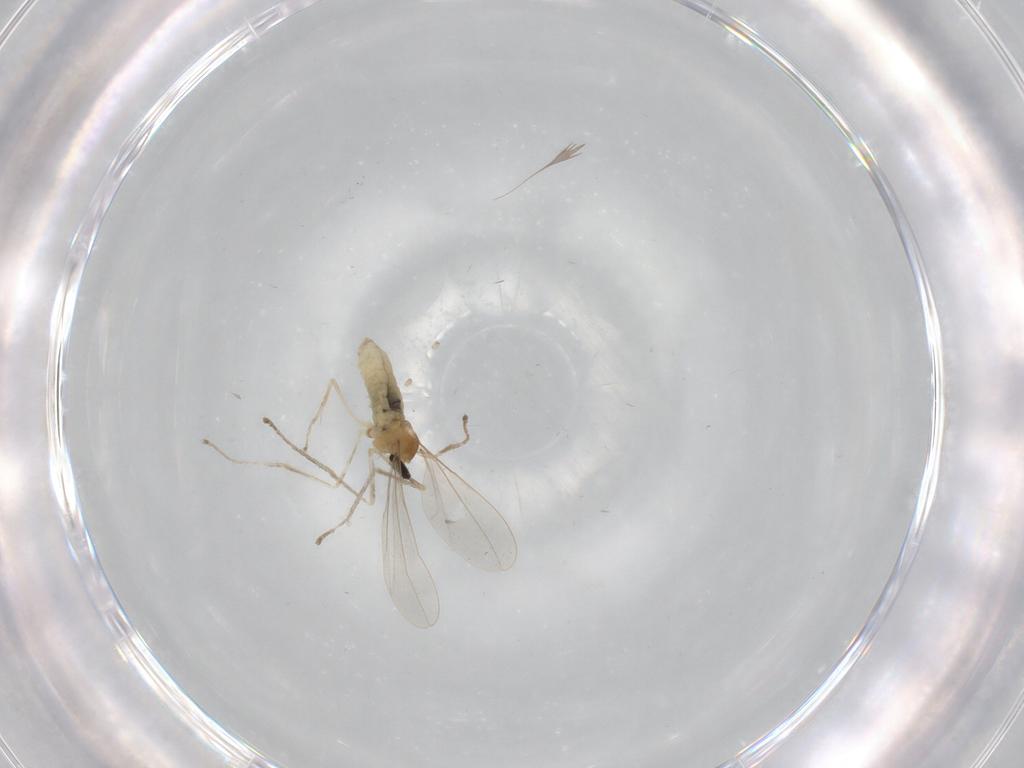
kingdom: Animalia
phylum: Arthropoda
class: Insecta
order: Diptera
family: Cecidomyiidae
